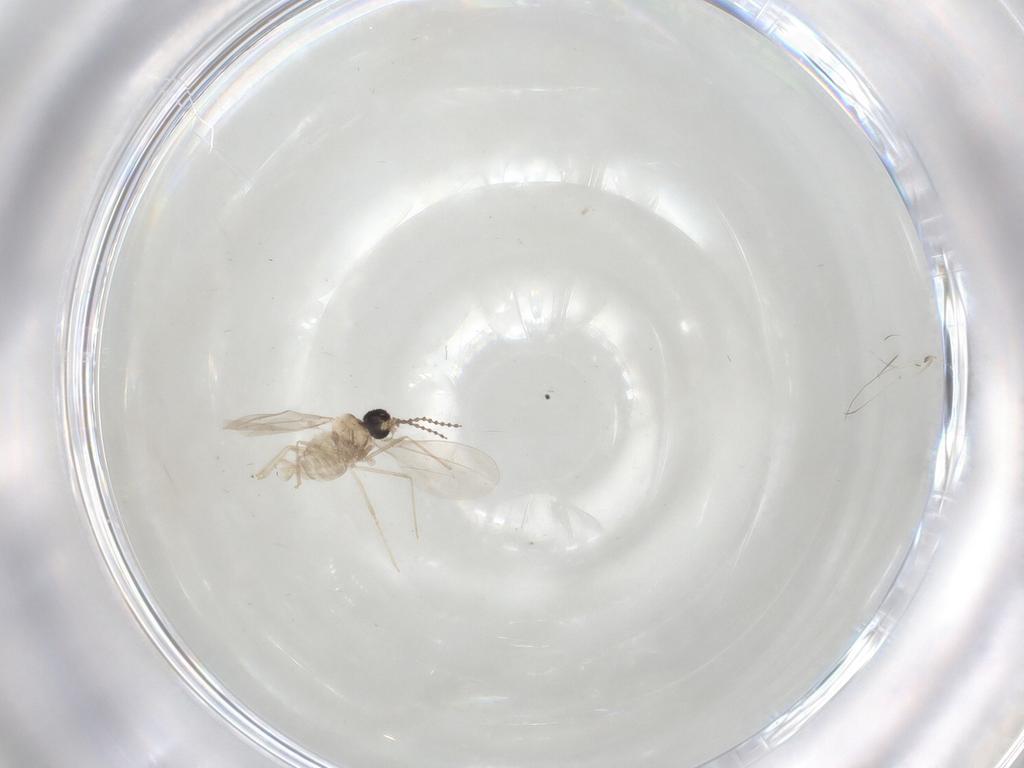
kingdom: Animalia
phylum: Arthropoda
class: Insecta
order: Diptera
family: Cecidomyiidae
